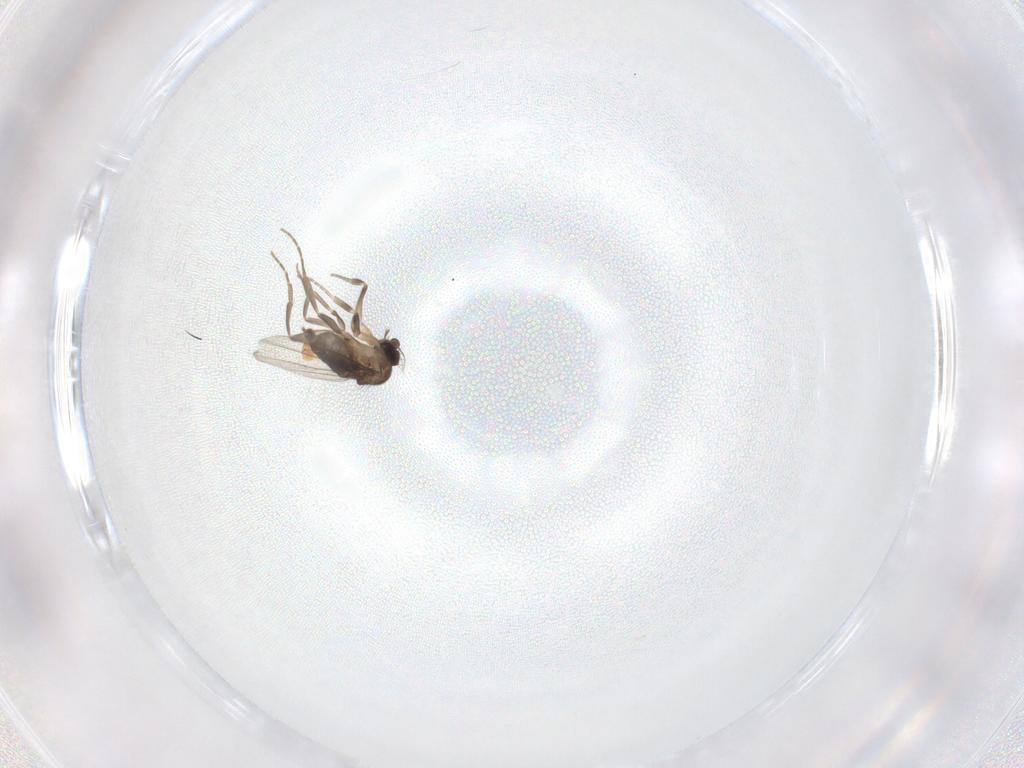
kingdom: Animalia
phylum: Arthropoda
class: Insecta
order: Diptera
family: Phoridae
